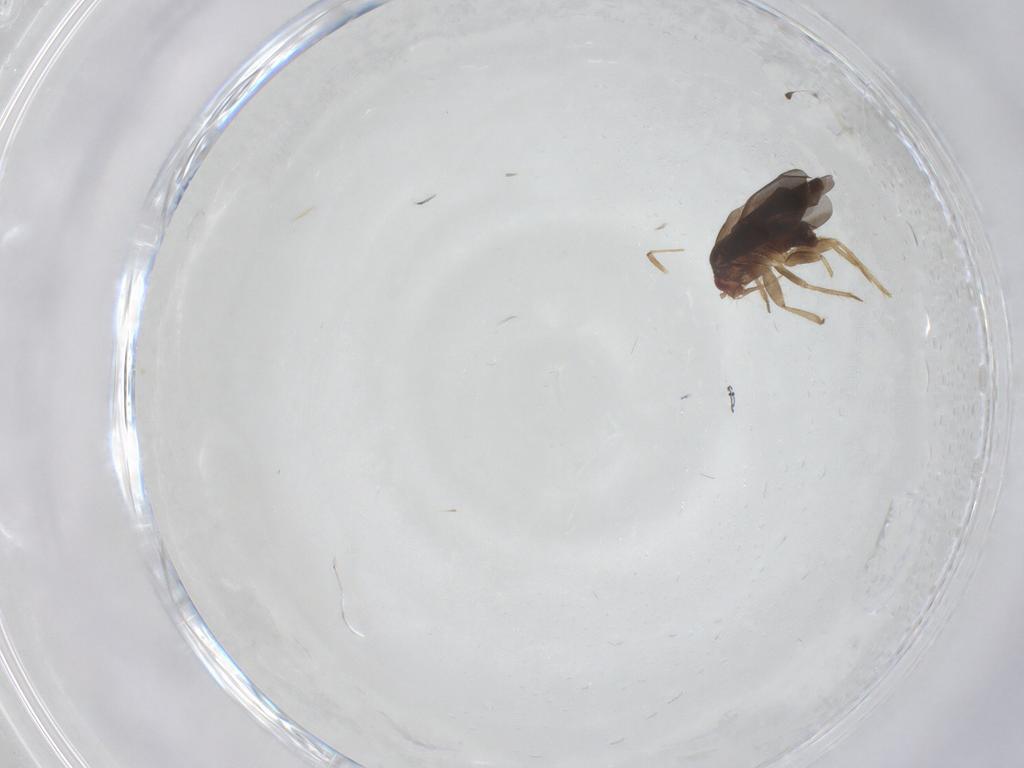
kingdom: Animalia
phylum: Arthropoda
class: Insecta
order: Hemiptera
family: Ceratocombidae
